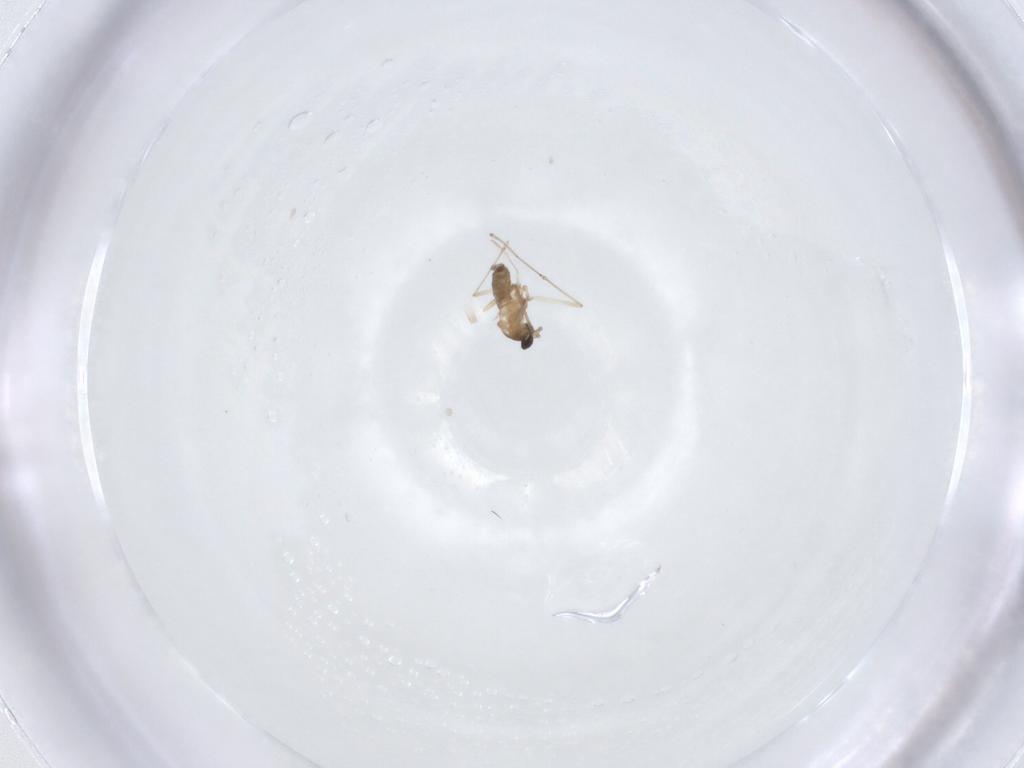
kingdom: Animalia
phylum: Arthropoda
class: Insecta
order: Diptera
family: Cecidomyiidae
